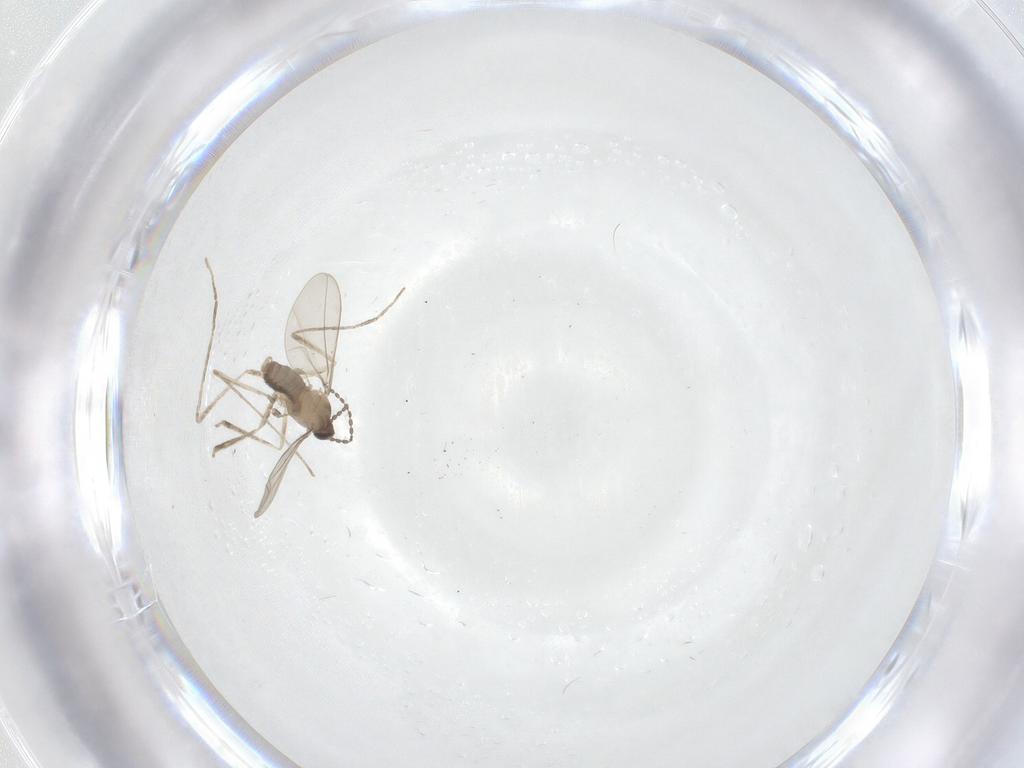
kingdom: Animalia
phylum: Arthropoda
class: Insecta
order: Diptera
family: Cecidomyiidae
